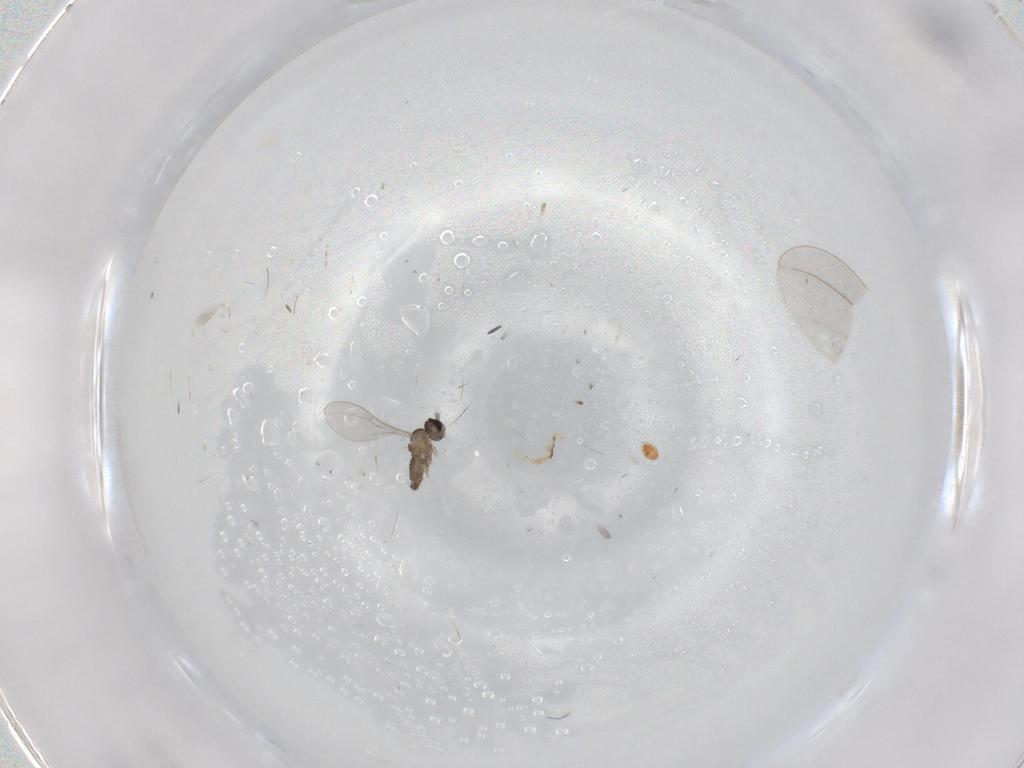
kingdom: Animalia
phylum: Arthropoda
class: Insecta
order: Diptera
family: Cecidomyiidae
